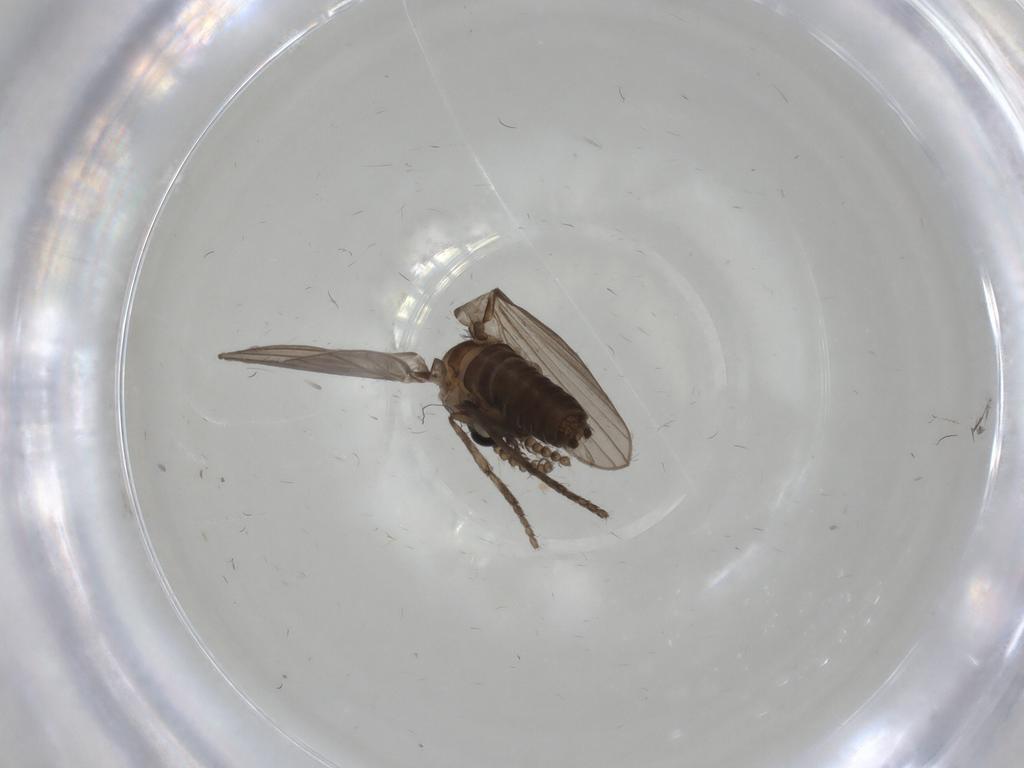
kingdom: Animalia
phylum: Arthropoda
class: Insecta
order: Diptera
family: Psychodidae
